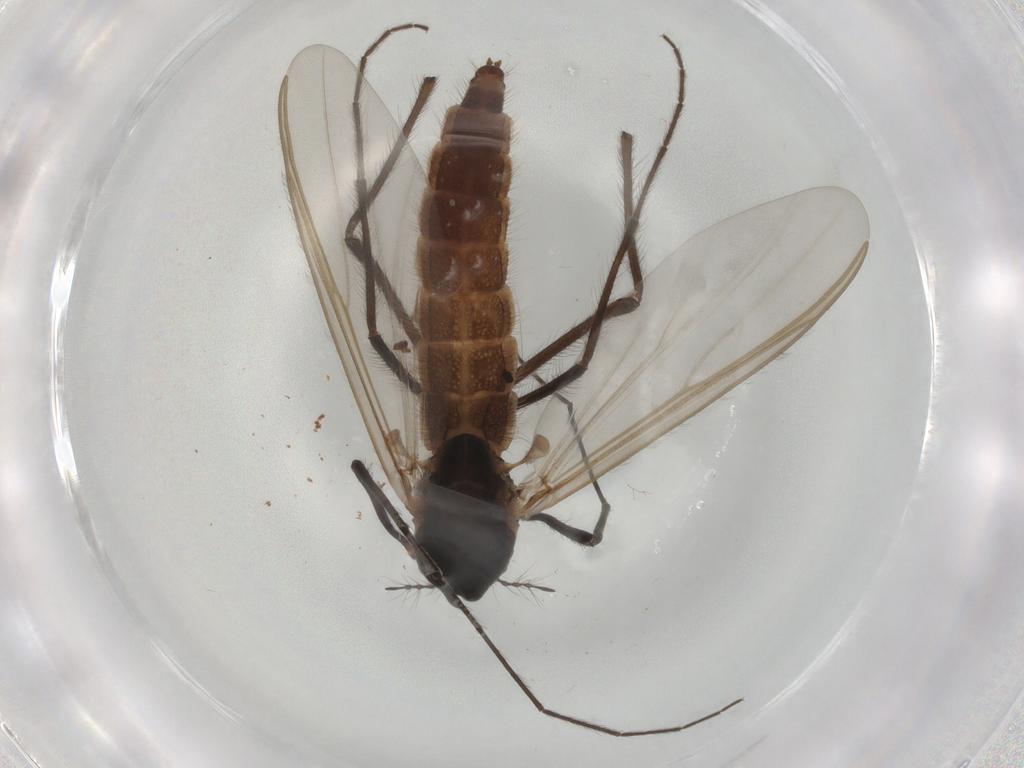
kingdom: Animalia
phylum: Arthropoda
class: Insecta
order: Diptera
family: Anthomyiidae
